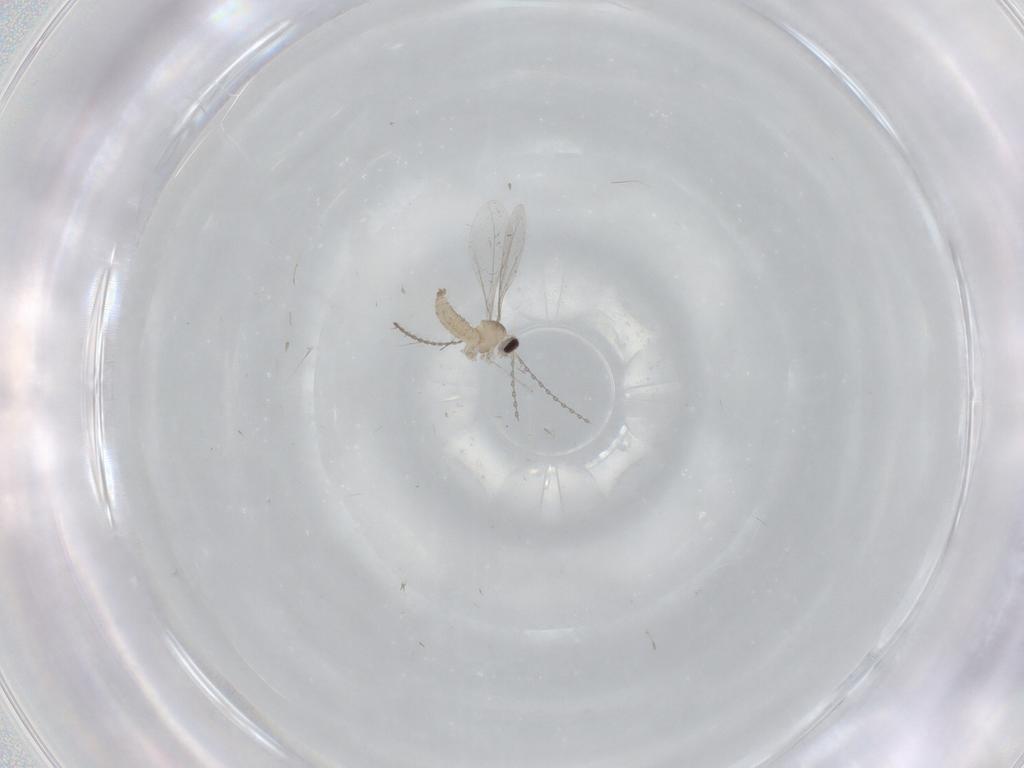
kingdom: Animalia
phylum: Arthropoda
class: Insecta
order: Diptera
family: Cecidomyiidae
